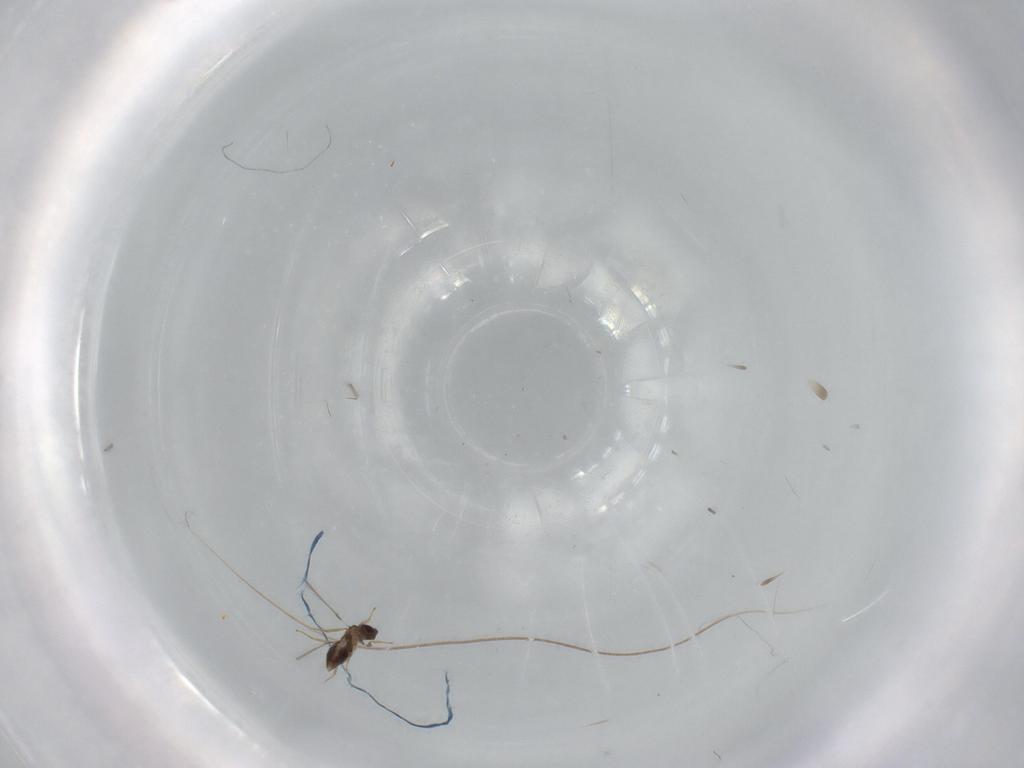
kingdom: Animalia
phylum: Arthropoda
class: Insecta
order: Hymenoptera
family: Mymaridae
